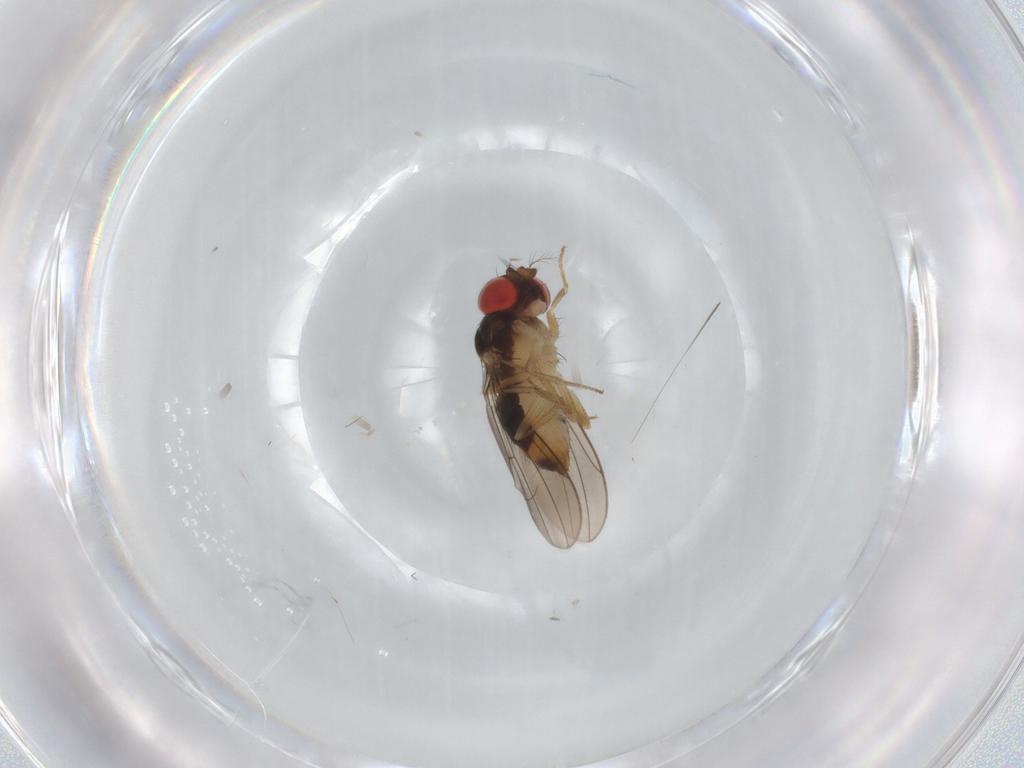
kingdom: Animalia
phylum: Arthropoda
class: Insecta
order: Diptera
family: Drosophilidae
